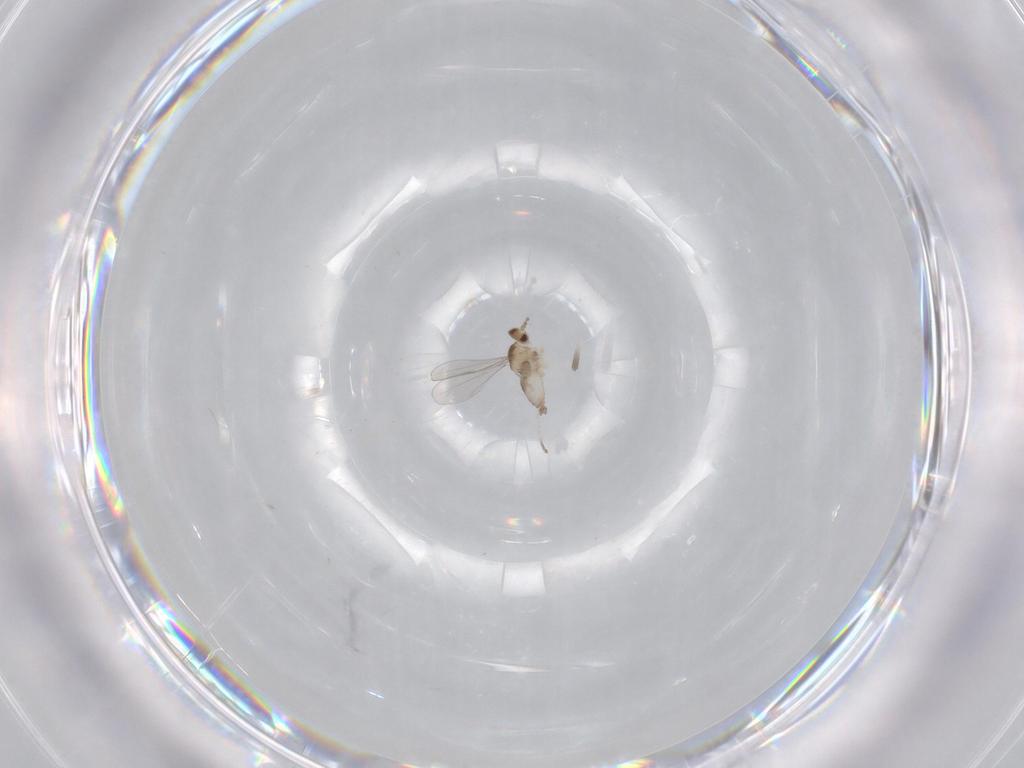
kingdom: Animalia
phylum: Arthropoda
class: Insecta
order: Diptera
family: Cecidomyiidae
